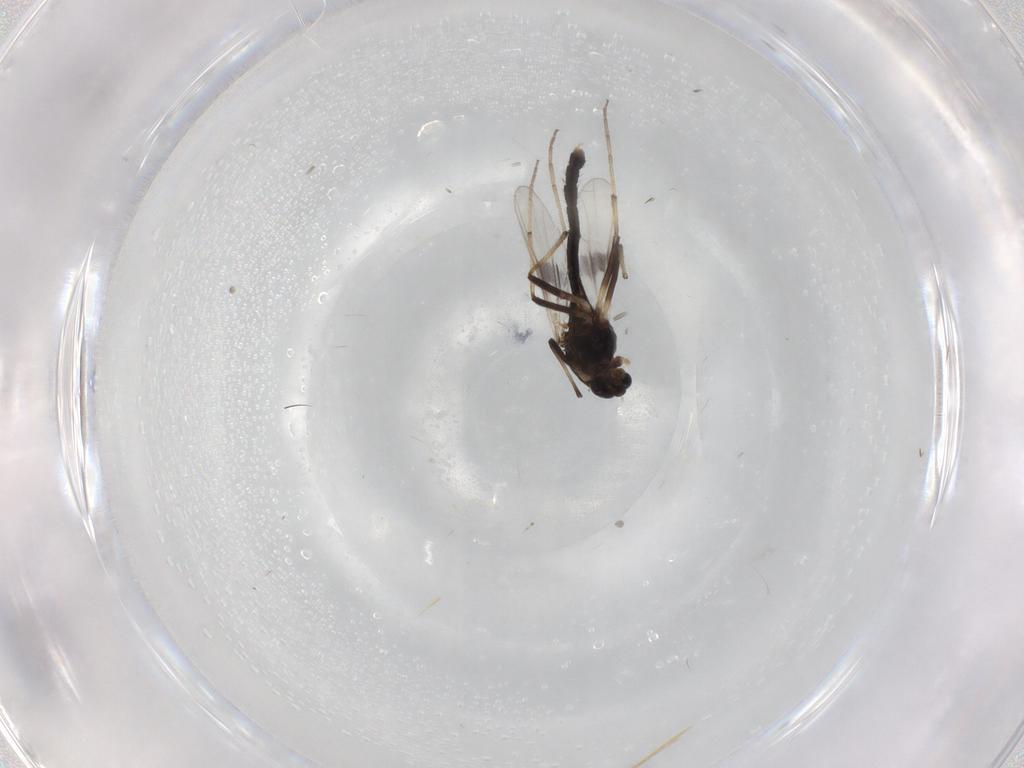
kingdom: Animalia
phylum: Arthropoda
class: Insecta
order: Diptera
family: Chironomidae
